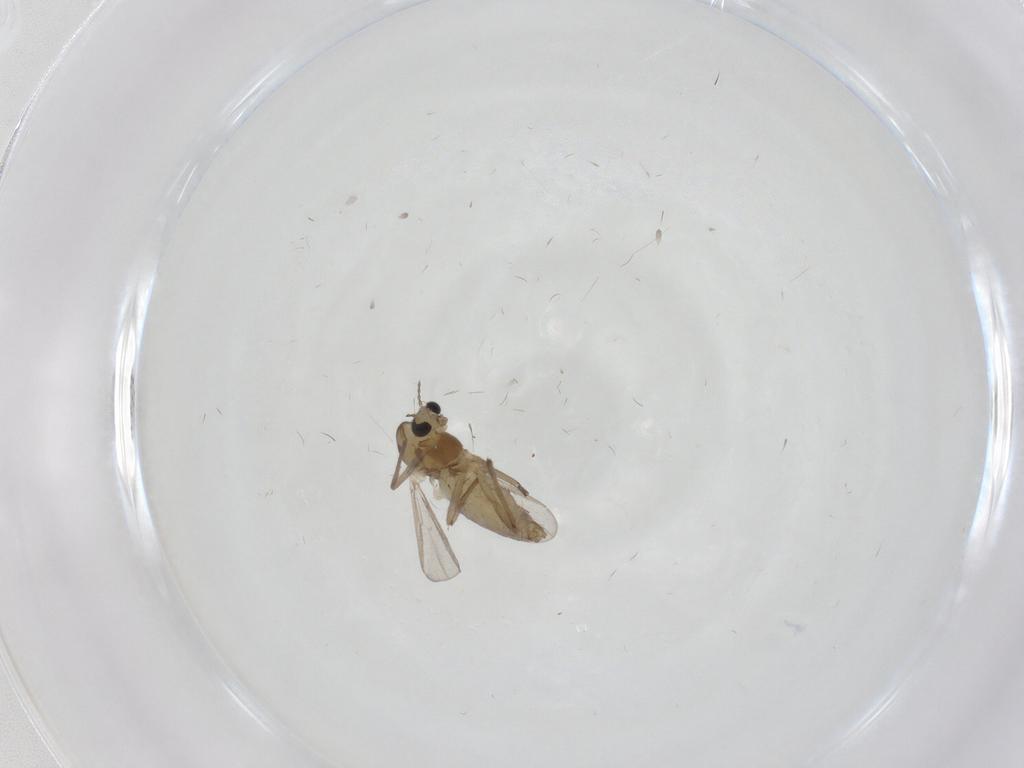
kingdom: Animalia
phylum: Arthropoda
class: Insecta
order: Diptera
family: Chironomidae
